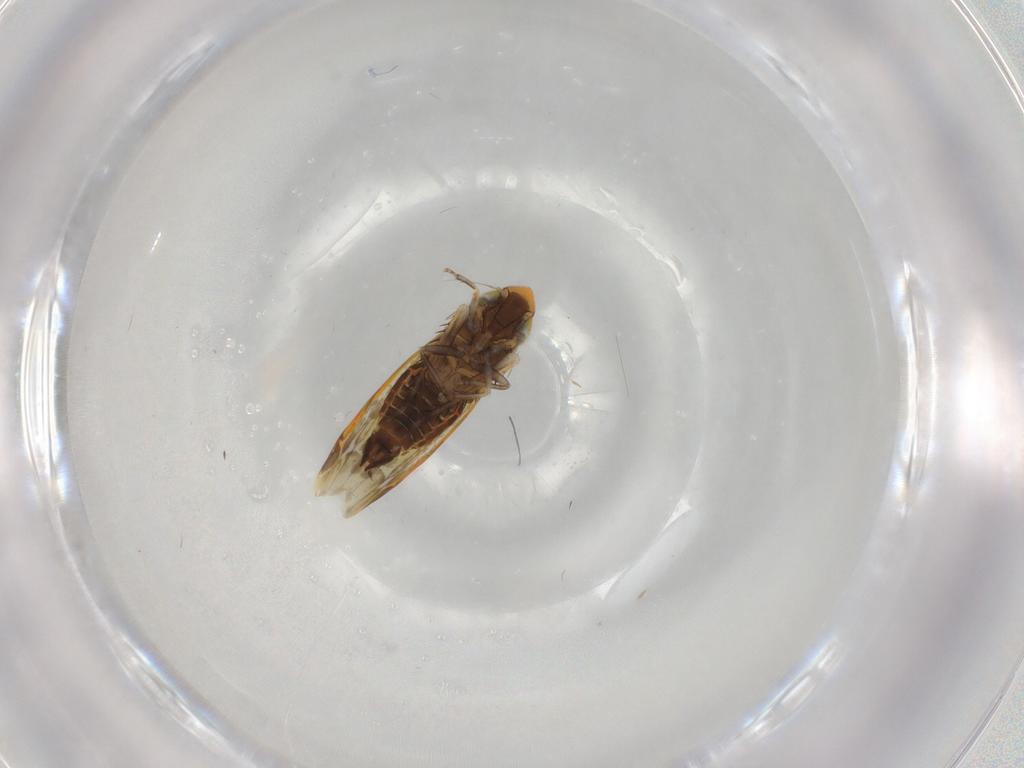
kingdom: Animalia
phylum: Arthropoda
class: Insecta
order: Hemiptera
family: Cicadellidae
